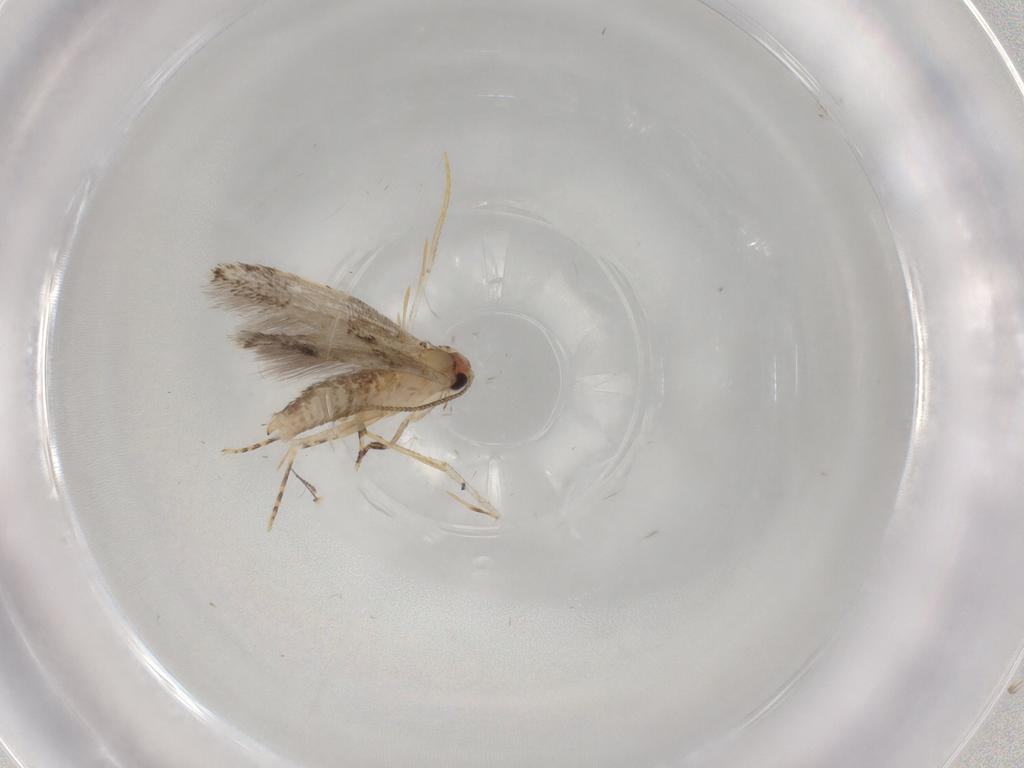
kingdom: Animalia
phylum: Arthropoda
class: Insecta
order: Lepidoptera
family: Tineidae
